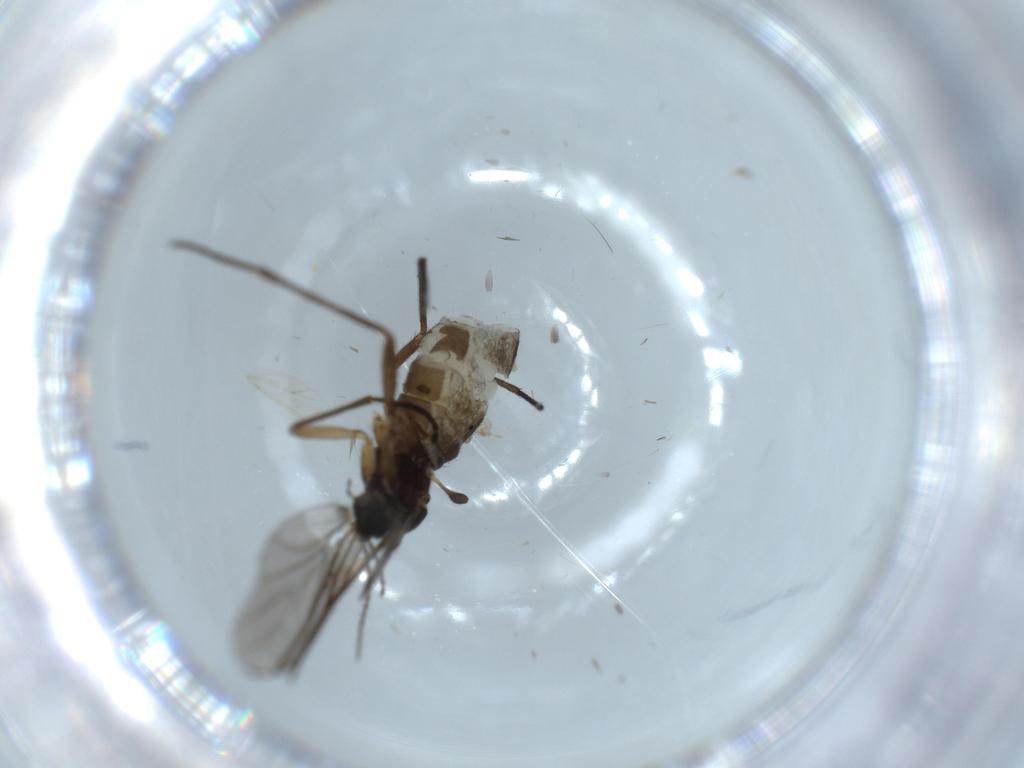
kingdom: Animalia
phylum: Arthropoda
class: Insecta
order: Diptera
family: Sciaridae
